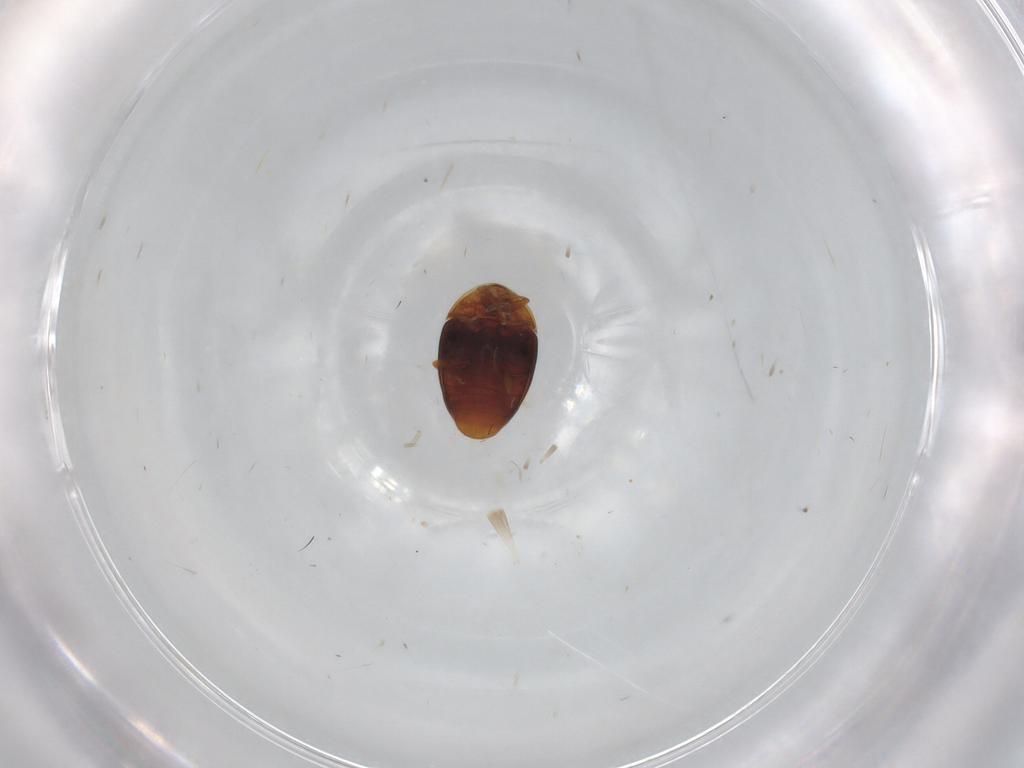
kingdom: Animalia
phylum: Arthropoda
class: Insecta
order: Coleoptera
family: Corylophidae
